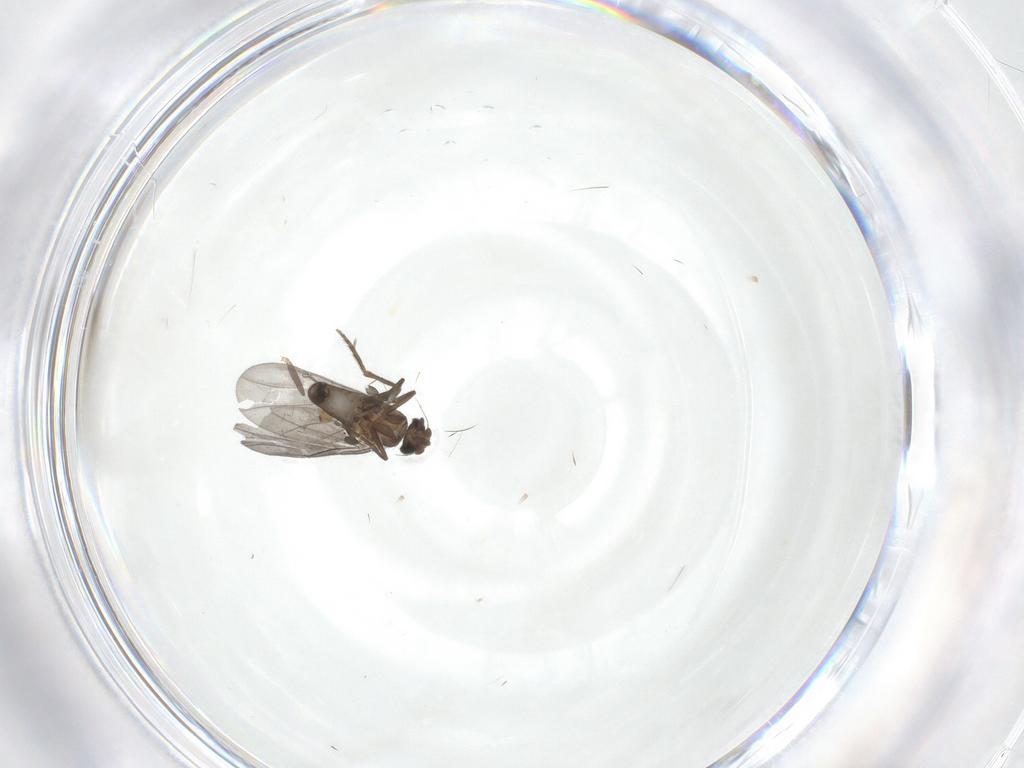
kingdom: Animalia
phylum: Arthropoda
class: Insecta
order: Diptera
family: Phoridae
